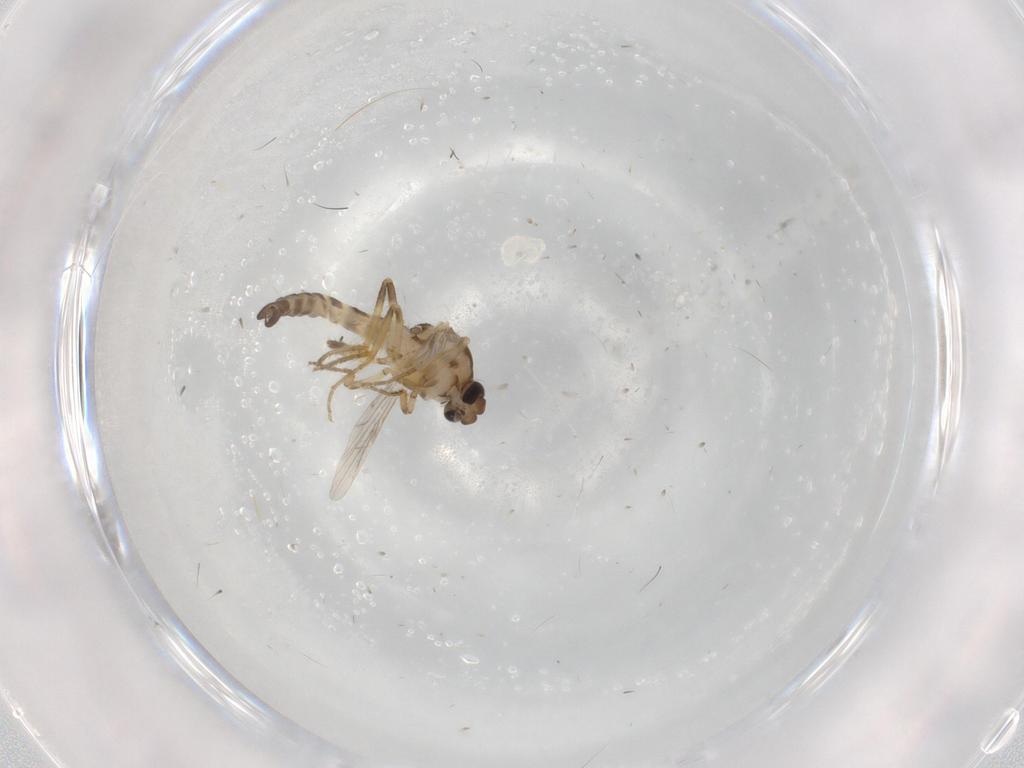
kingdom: Animalia
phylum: Arthropoda
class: Insecta
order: Diptera
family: Ceratopogonidae
